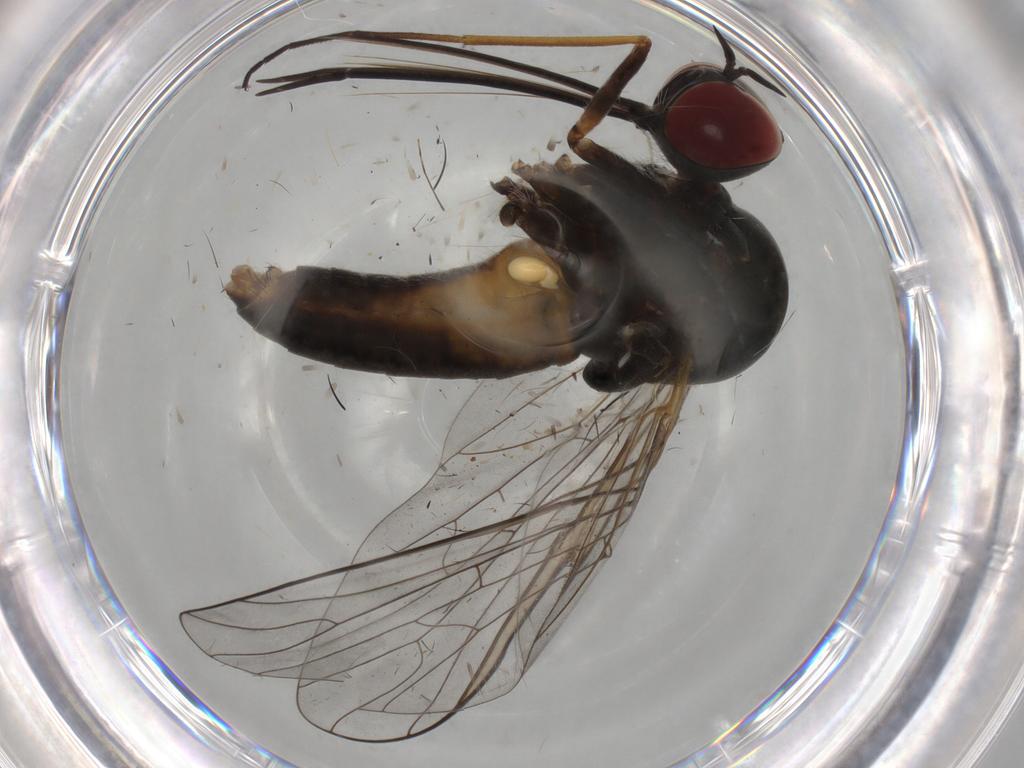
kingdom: Animalia
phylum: Arthropoda
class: Insecta
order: Diptera
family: Bombyliidae
